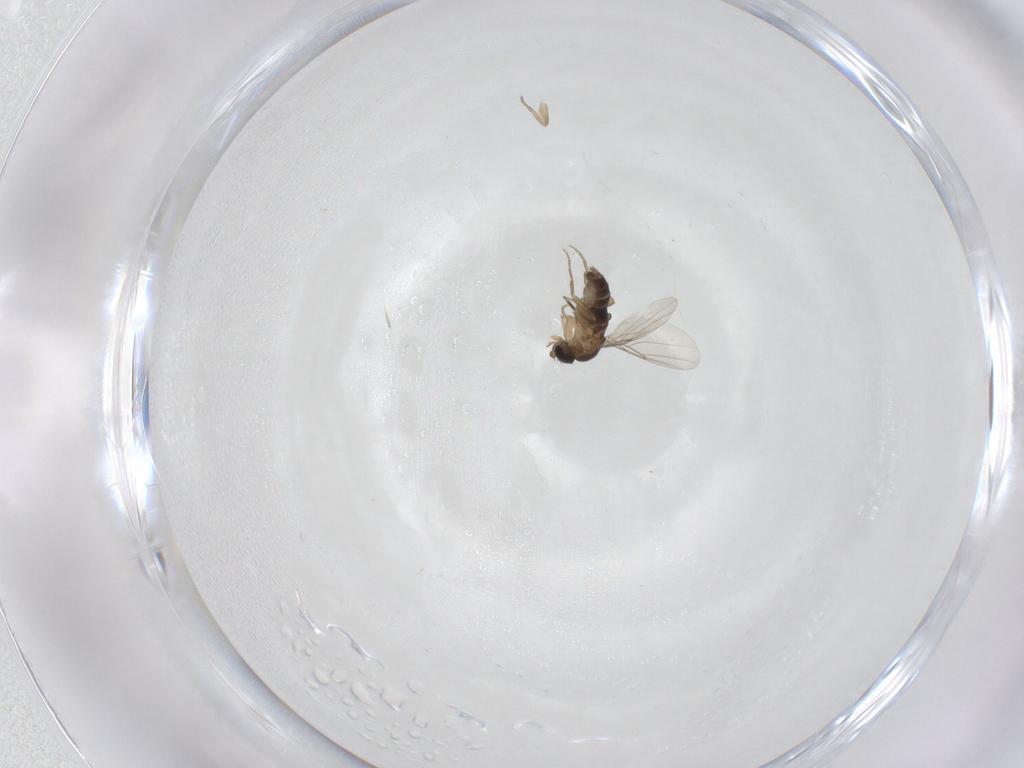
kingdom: Animalia
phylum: Arthropoda
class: Insecta
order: Diptera
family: Phoridae
